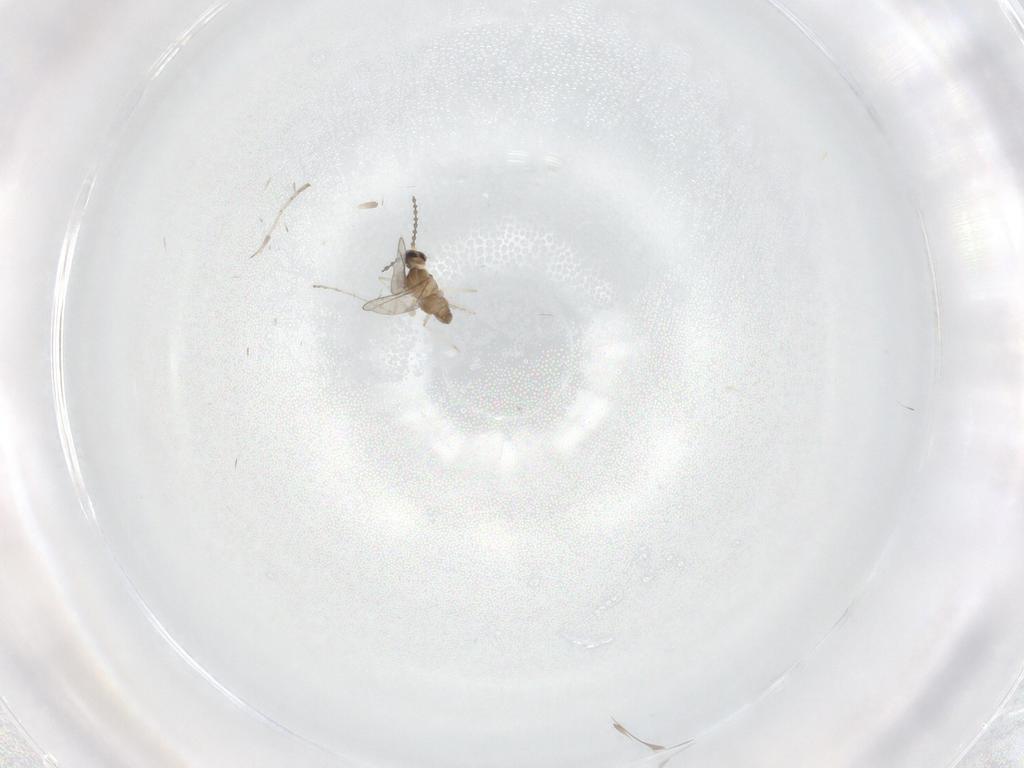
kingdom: Animalia
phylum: Arthropoda
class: Insecta
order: Diptera
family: Cecidomyiidae
